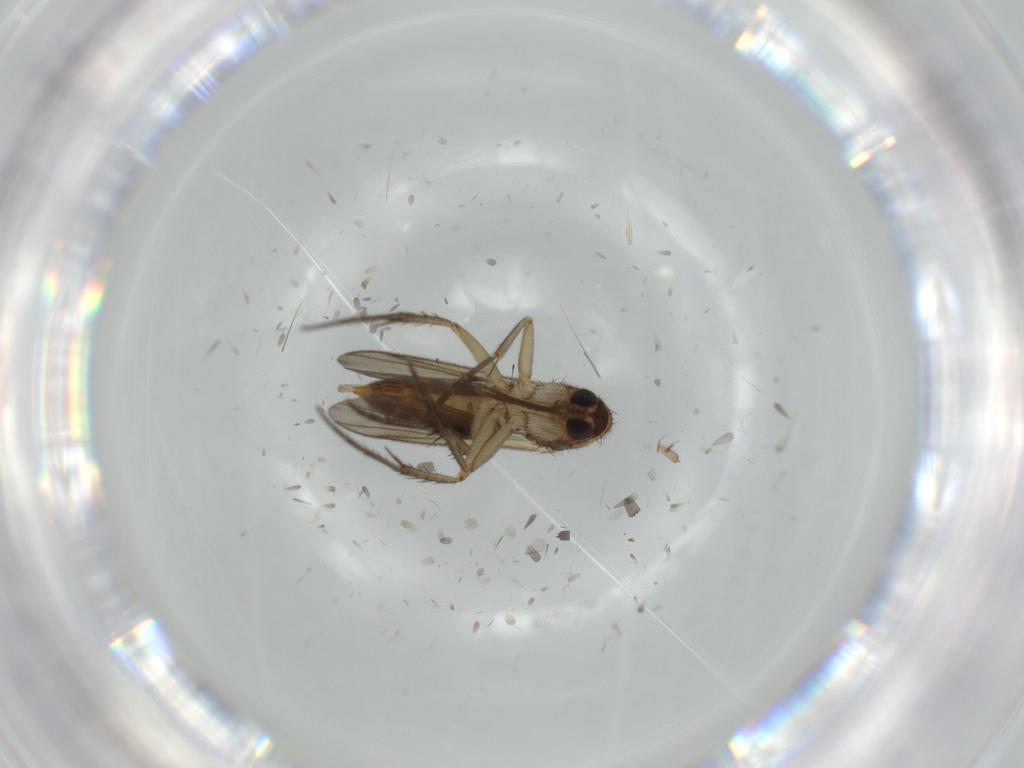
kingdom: Animalia
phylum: Arthropoda
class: Insecta
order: Diptera
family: Mycetophilidae
